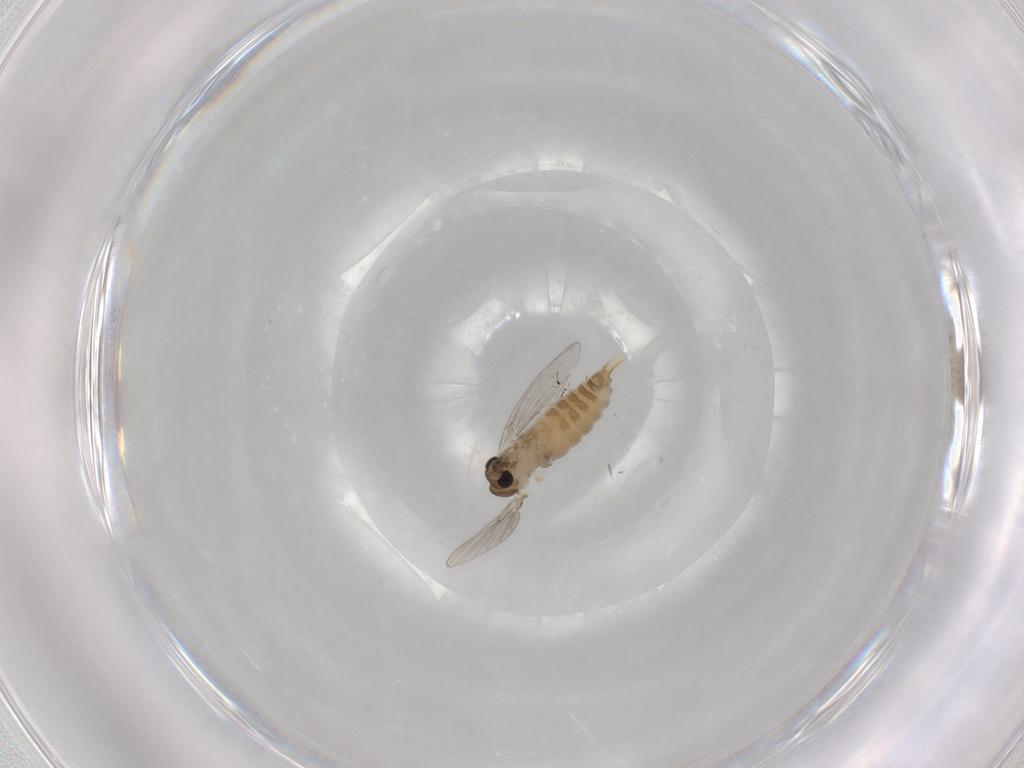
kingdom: Animalia
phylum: Arthropoda
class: Insecta
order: Diptera
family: Psychodidae
